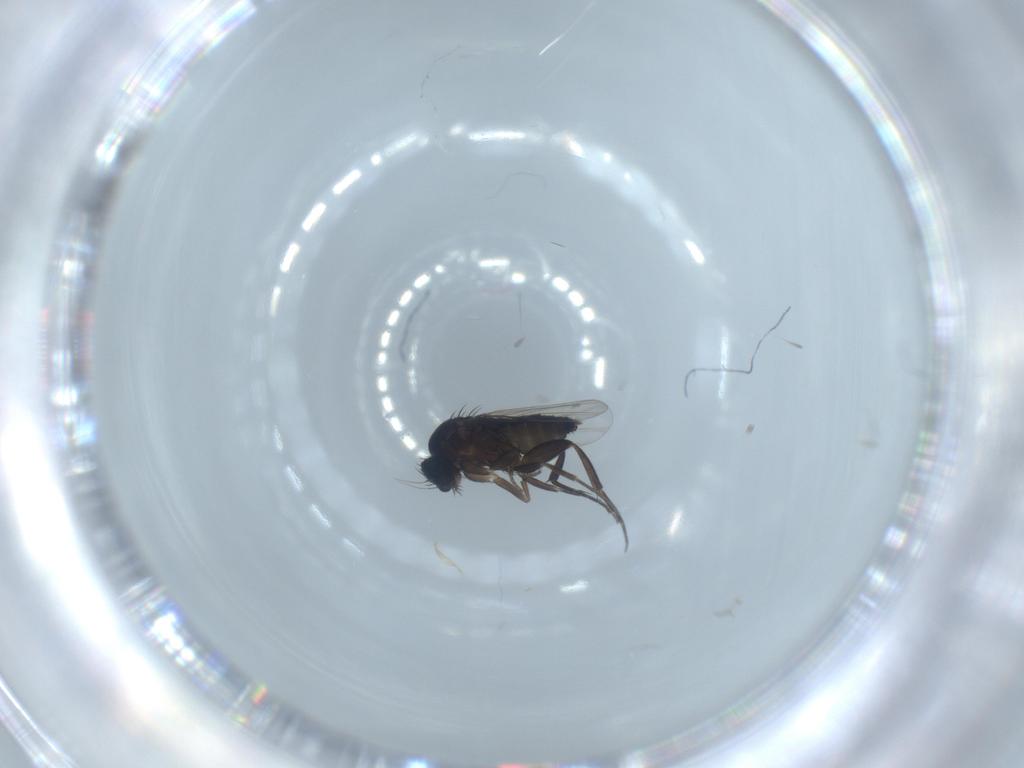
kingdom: Animalia
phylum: Arthropoda
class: Insecta
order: Diptera
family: Phoridae
